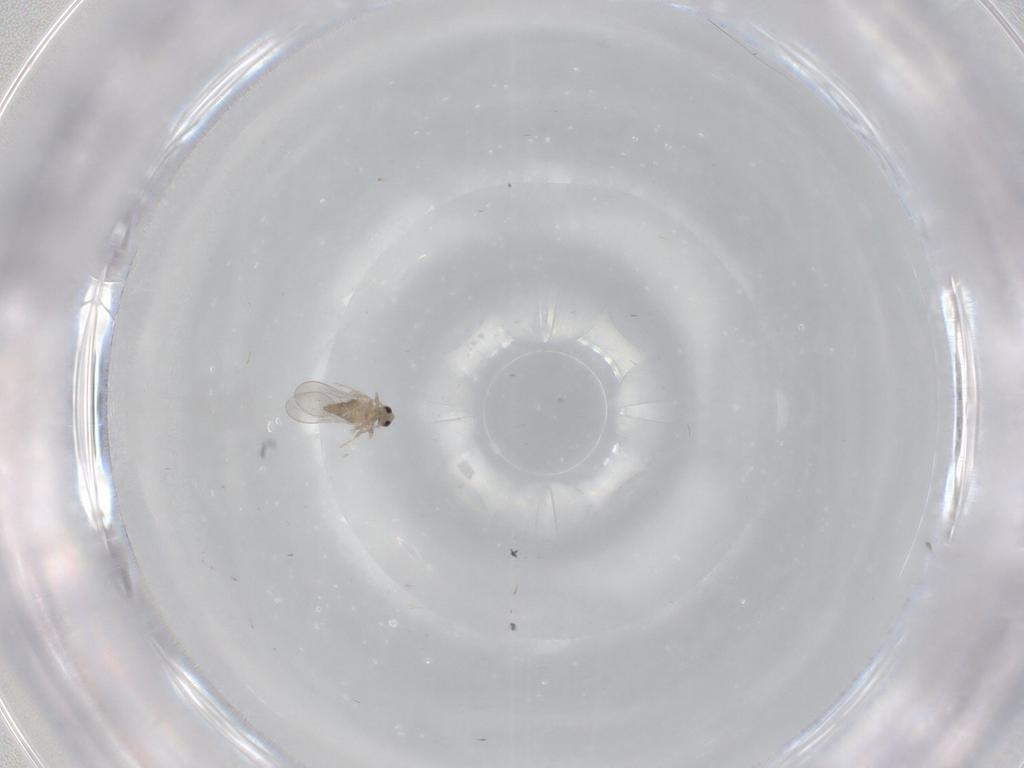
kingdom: Animalia
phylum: Arthropoda
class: Insecta
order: Diptera
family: Cecidomyiidae
